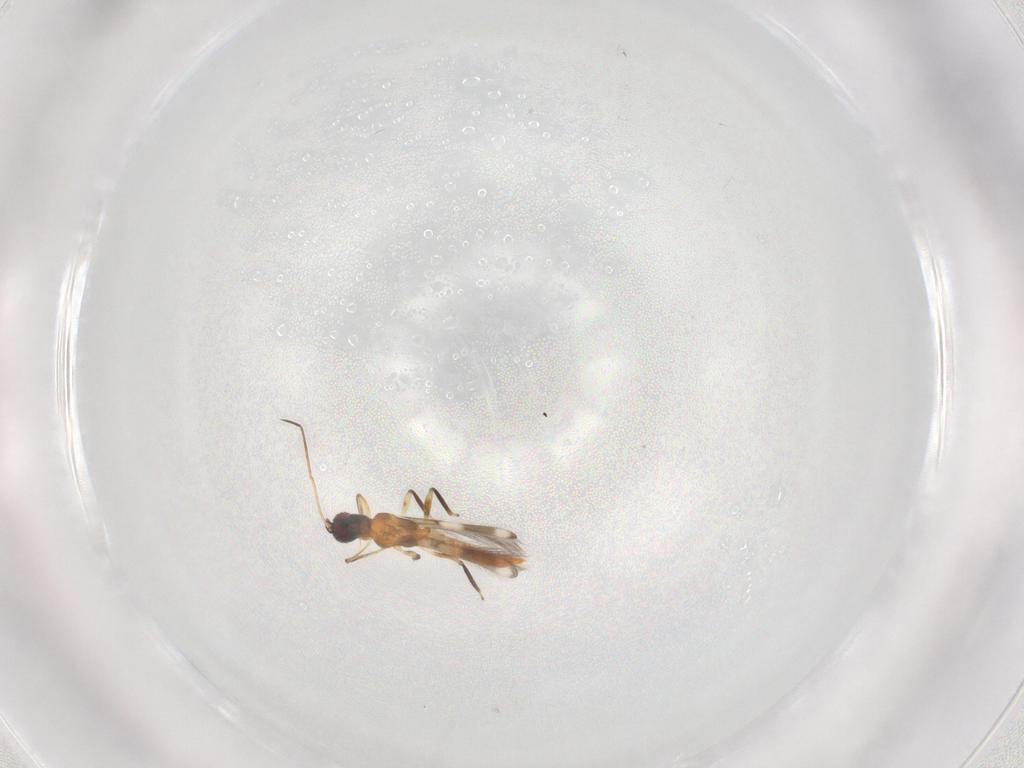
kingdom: Animalia
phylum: Arthropoda
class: Insecta
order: Thysanoptera
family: Aeolothripidae
